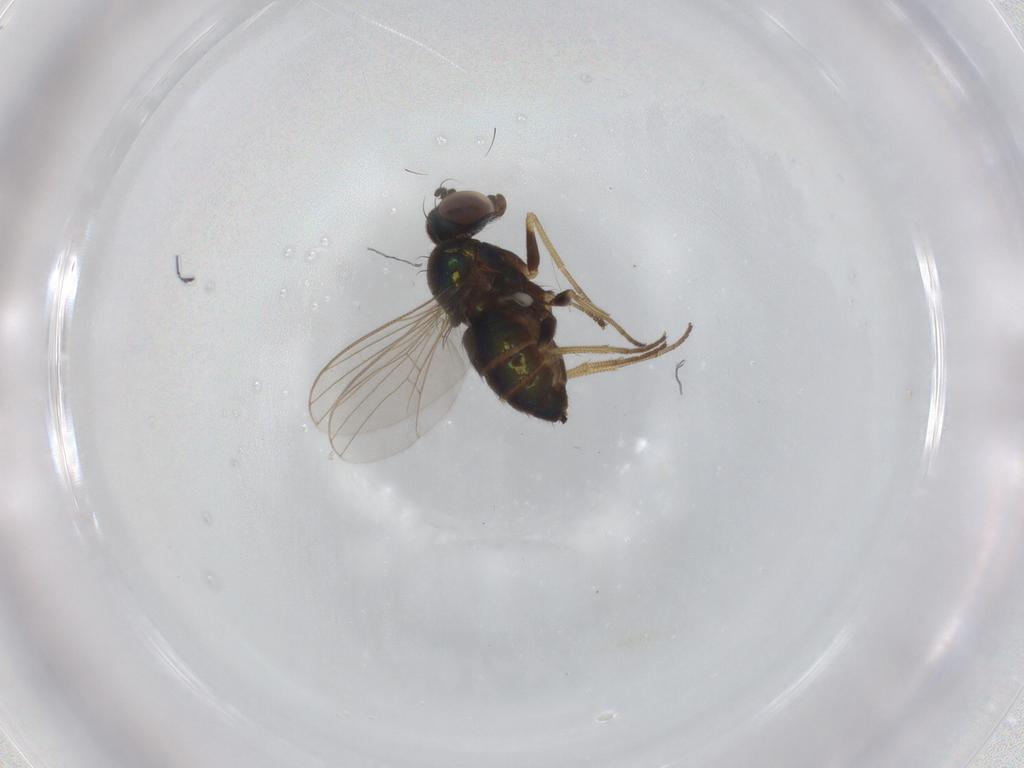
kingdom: Animalia
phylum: Arthropoda
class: Insecta
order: Diptera
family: Dolichopodidae
